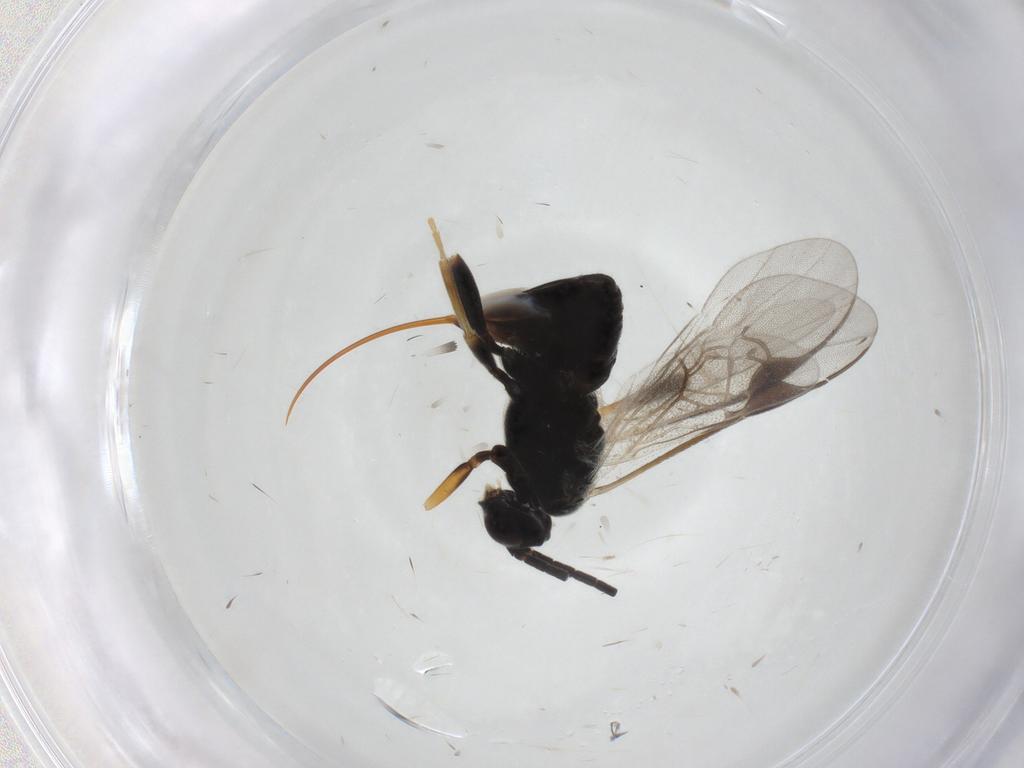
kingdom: Animalia
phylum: Arthropoda
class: Insecta
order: Hymenoptera
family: Braconidae
